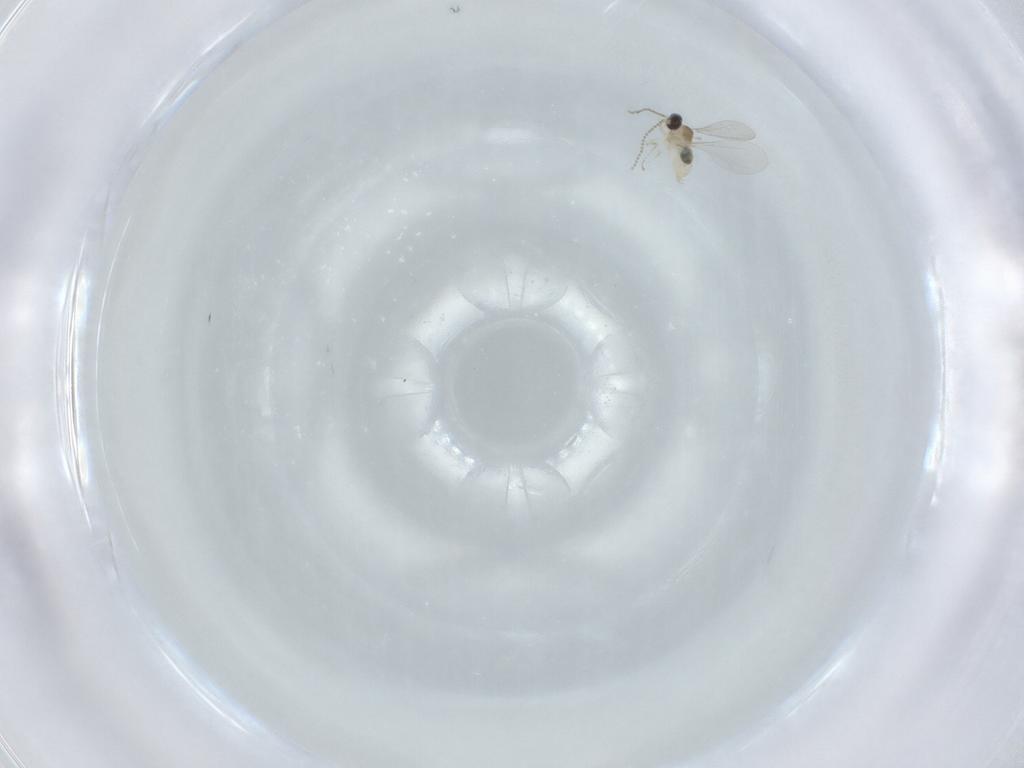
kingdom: Animalia
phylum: Arthropoda
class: Insecta
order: Diptera
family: Cecidomyiidae
